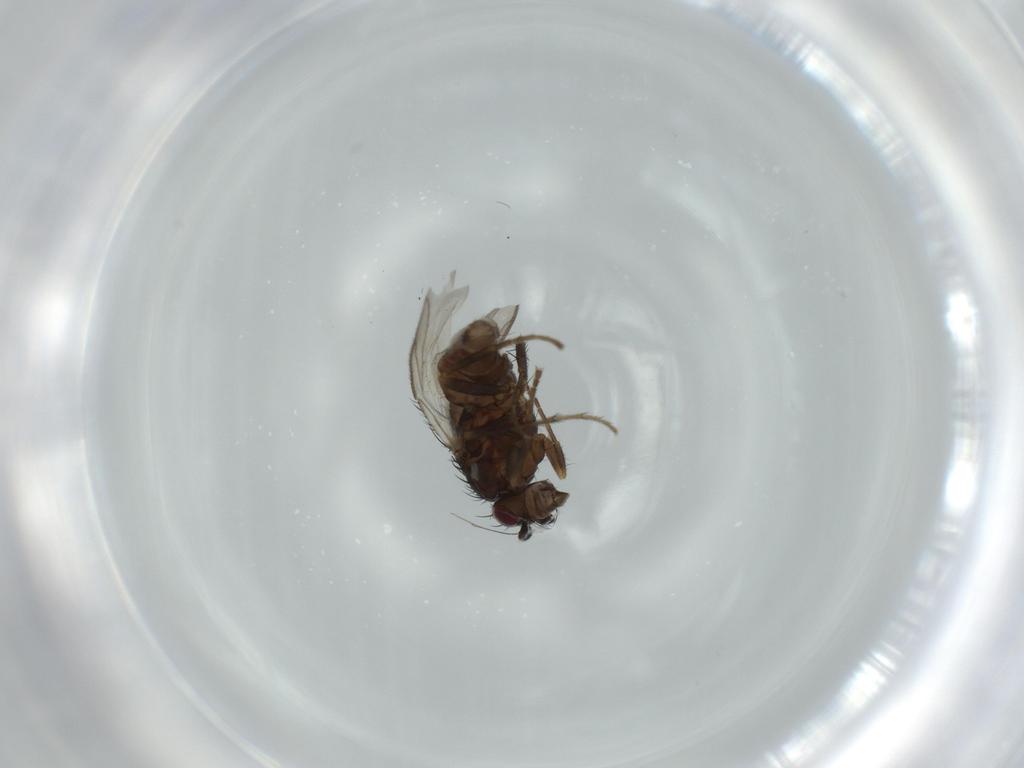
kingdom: Animalia
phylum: Arthropoda
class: Insecta
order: Diptera
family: Sphaeroceridae
